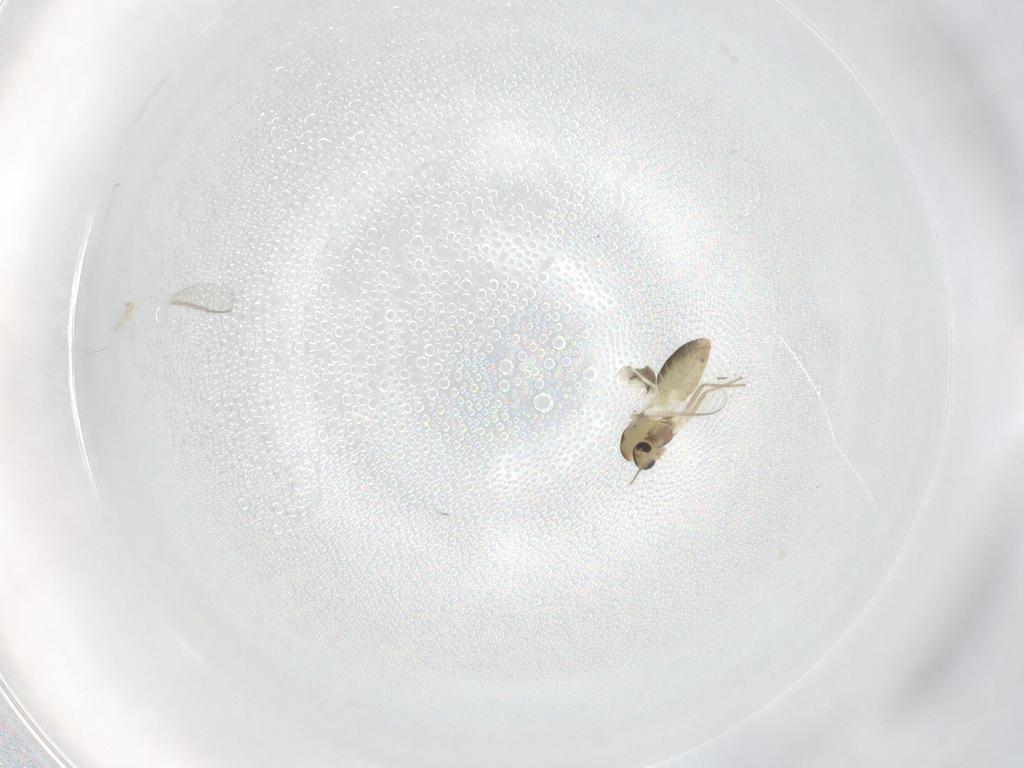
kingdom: Animalia
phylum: Arthropoda
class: Insecta
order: Diptera
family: Chironomidae
